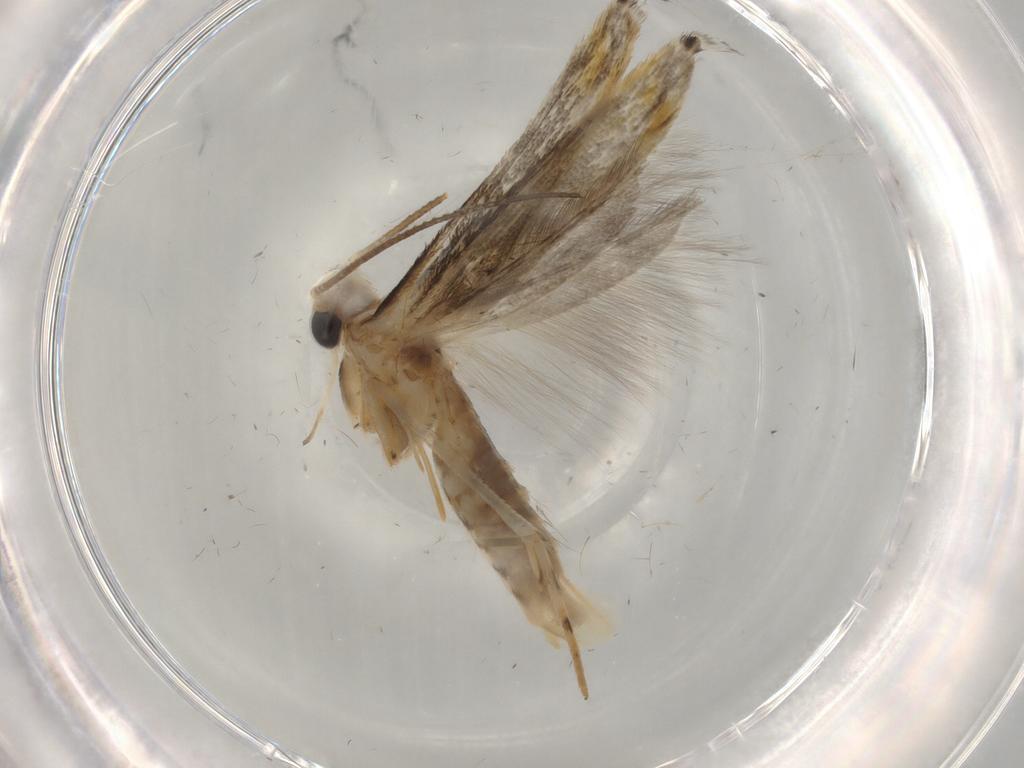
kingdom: Animalia
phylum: Arthropoda
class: Insecta
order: Lepidoptera
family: Gelechiidae
